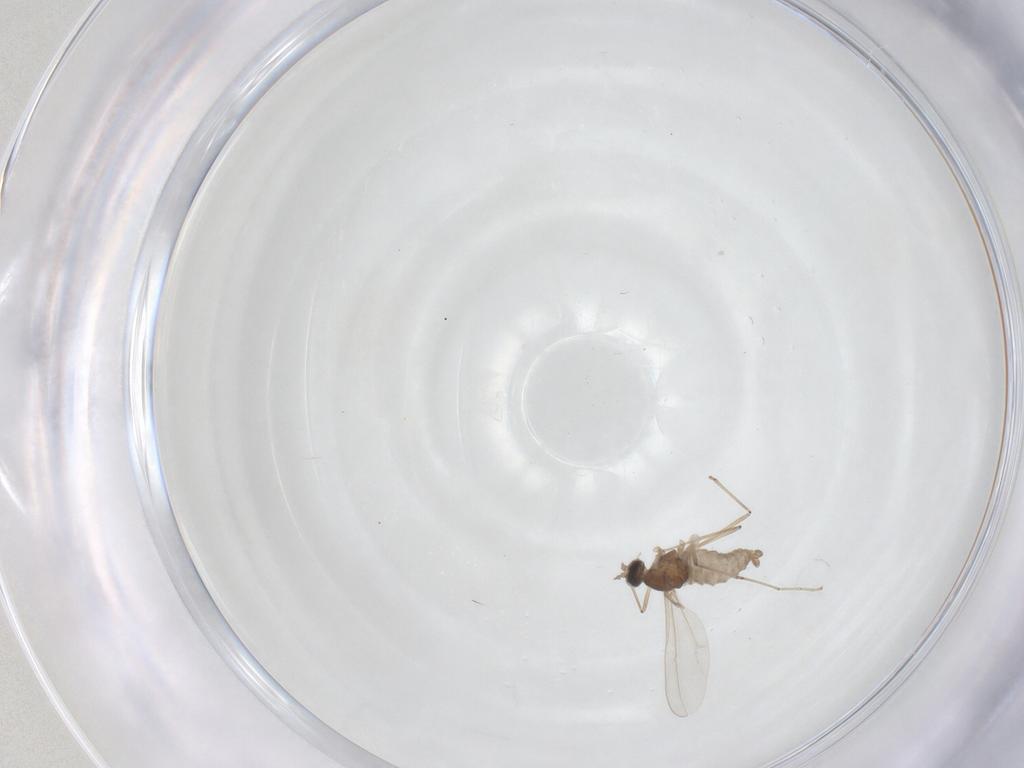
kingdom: Animalia
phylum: Arthropoda
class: Insecta
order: Diptera
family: Cecidomyiidae
